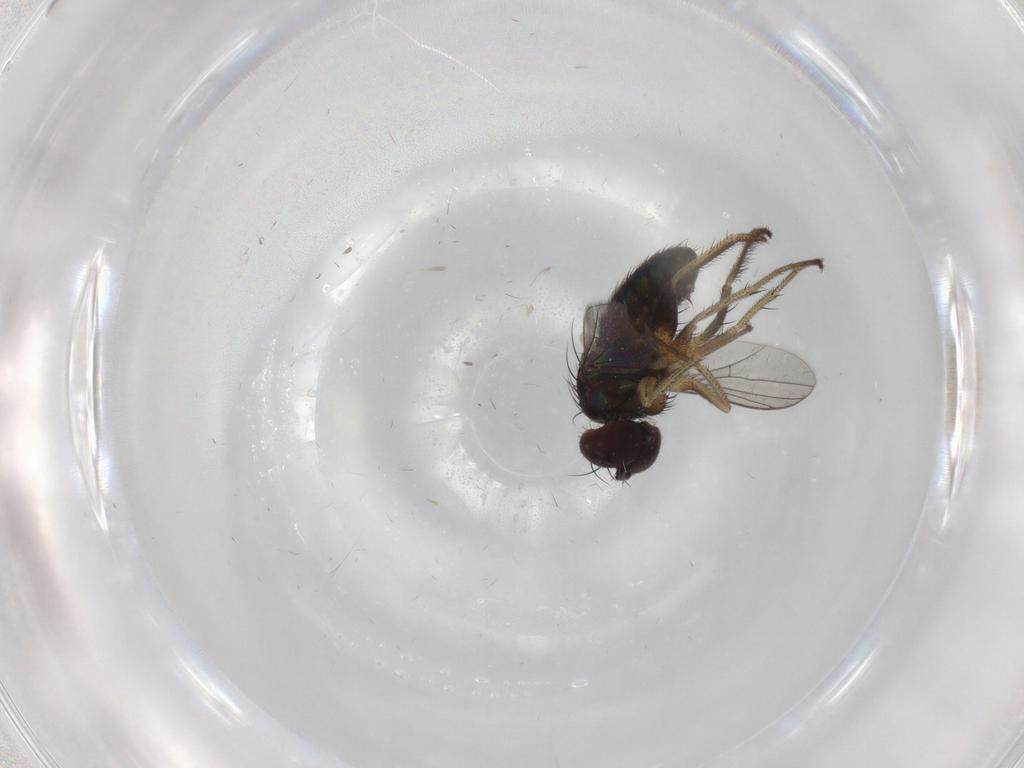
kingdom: Animalia
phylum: Arthropoda
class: Insecta
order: Diptera
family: Dolichopodidae
